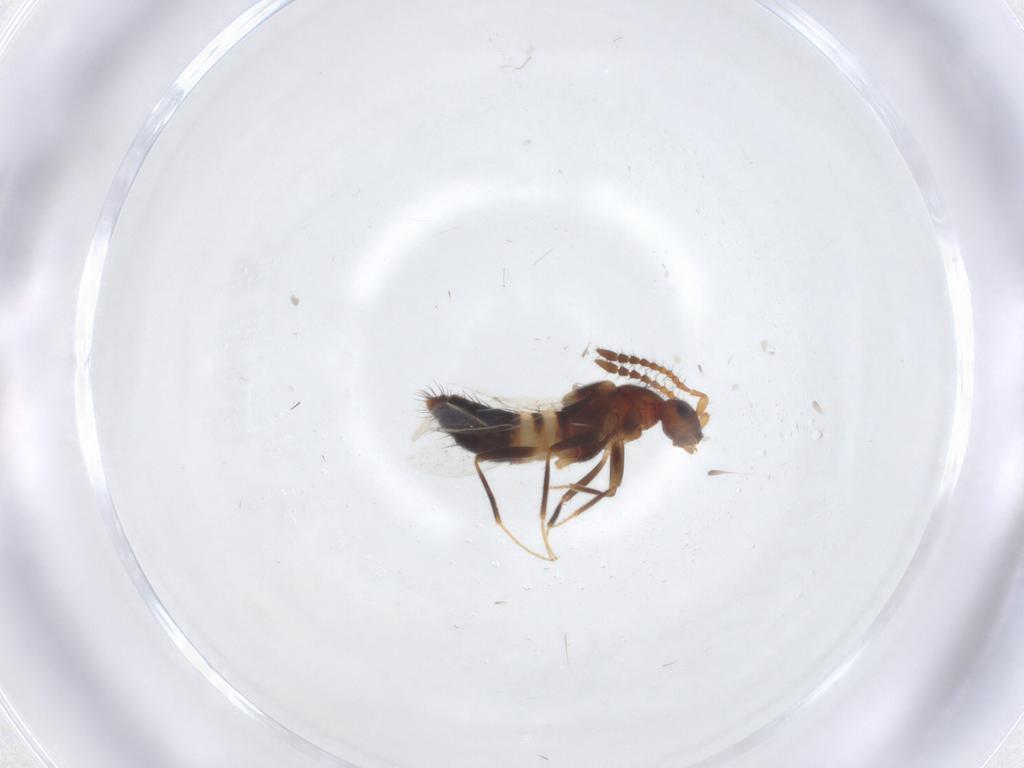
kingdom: Animalia
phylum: Arthropoda
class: Insecta
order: Coleoptera
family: Staphylinidae
